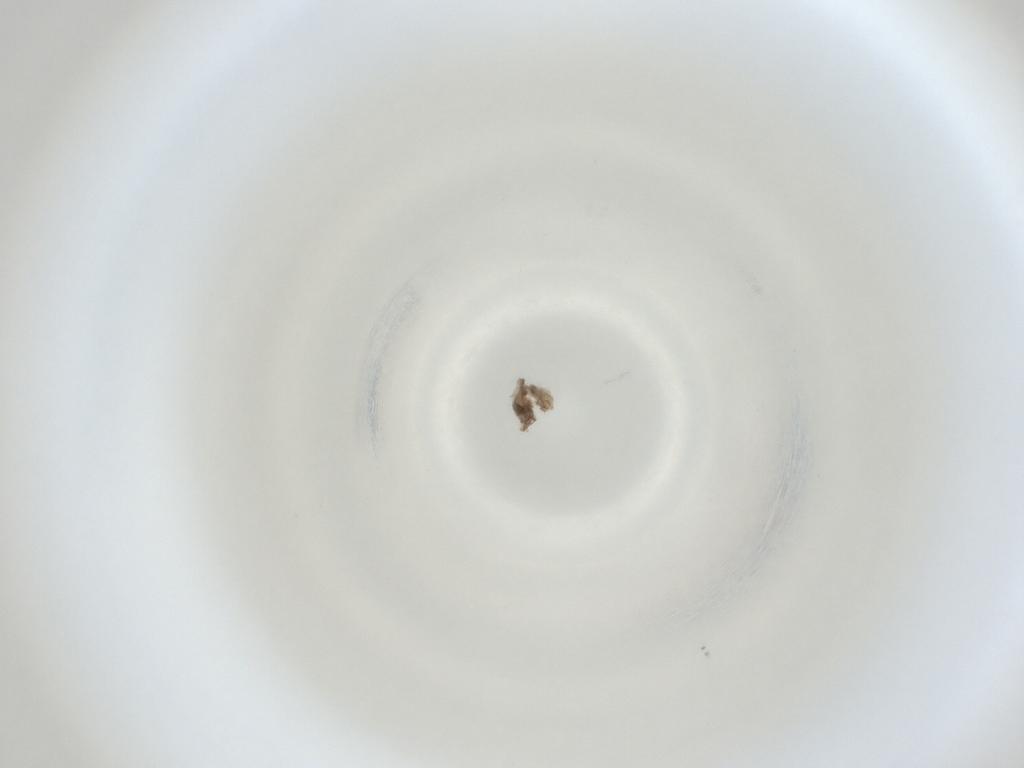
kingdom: Animalia
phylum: Arthropoda
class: Insecta
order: Diptera
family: Cecidomyiidae
